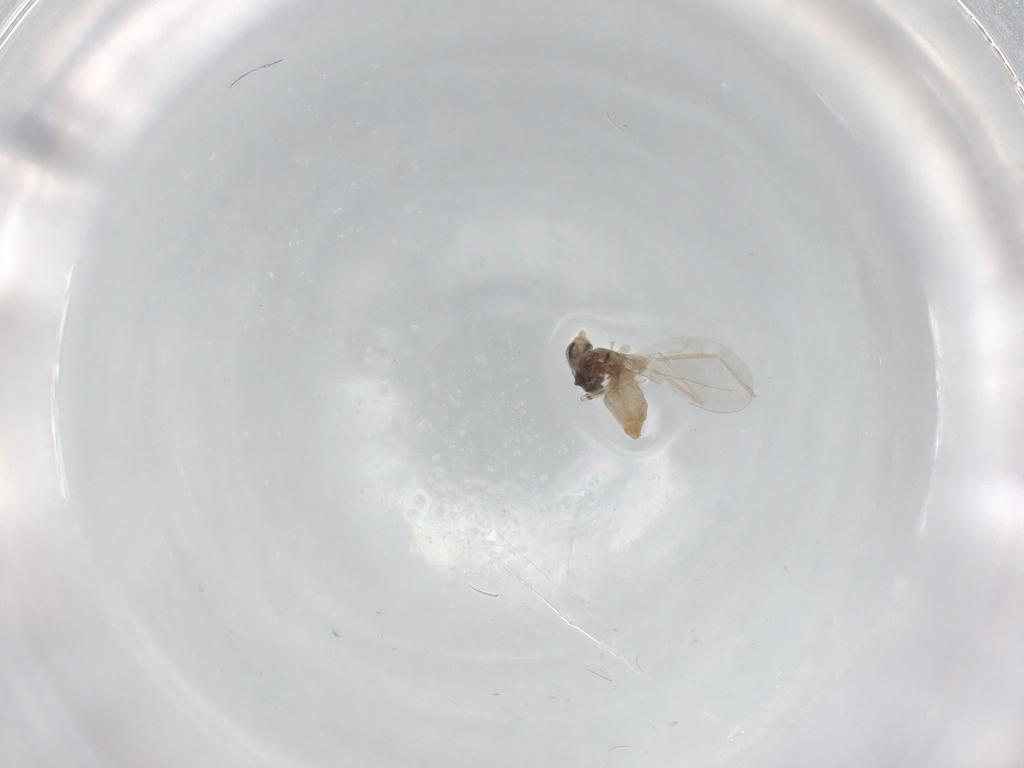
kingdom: Animalia
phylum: Arthropoda
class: Insecta
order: Diptera
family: Cecidomyiidae
